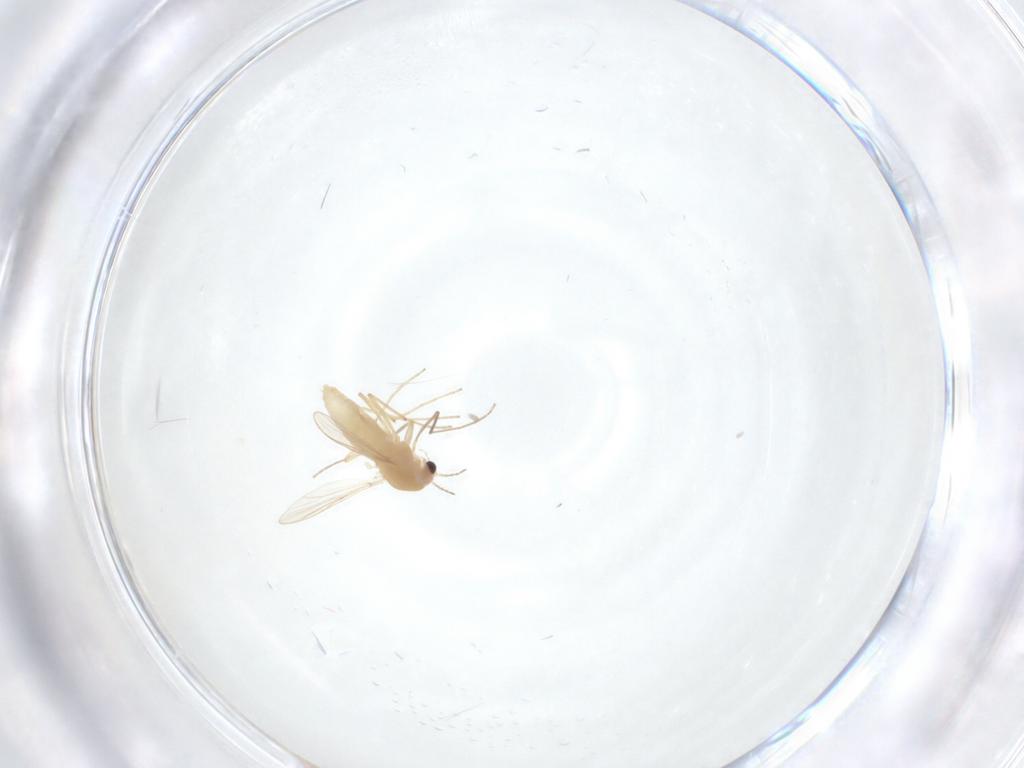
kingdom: Animalia
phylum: Arthropoda
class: Insecta
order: Diptera
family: Chironomidae
